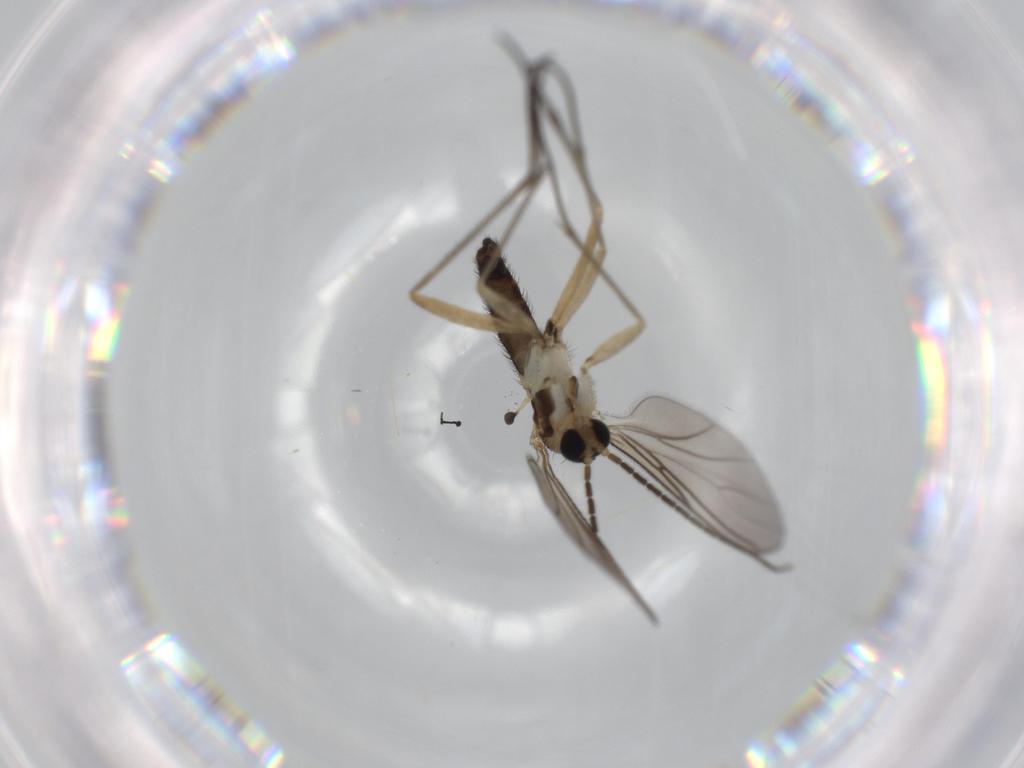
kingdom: Animalia
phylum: Arthropoda
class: Insecta
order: Diptera
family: Sciaridae
